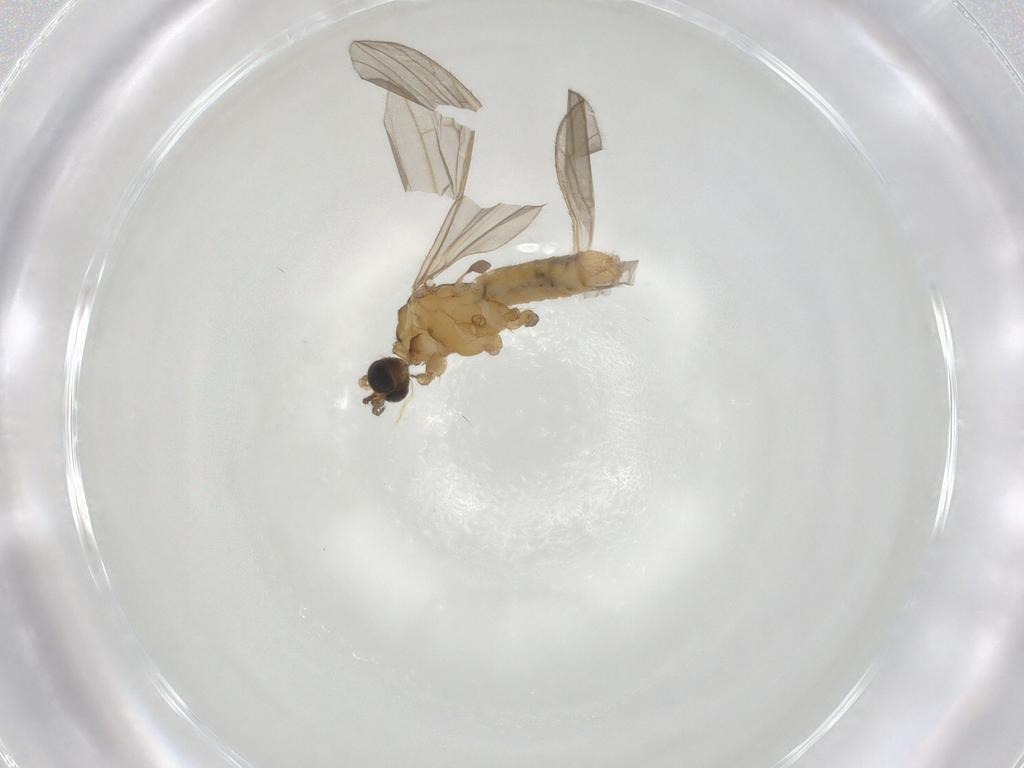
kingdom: Animalia
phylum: Arthropoda
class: Insecta
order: Diptera
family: Limoniidae
